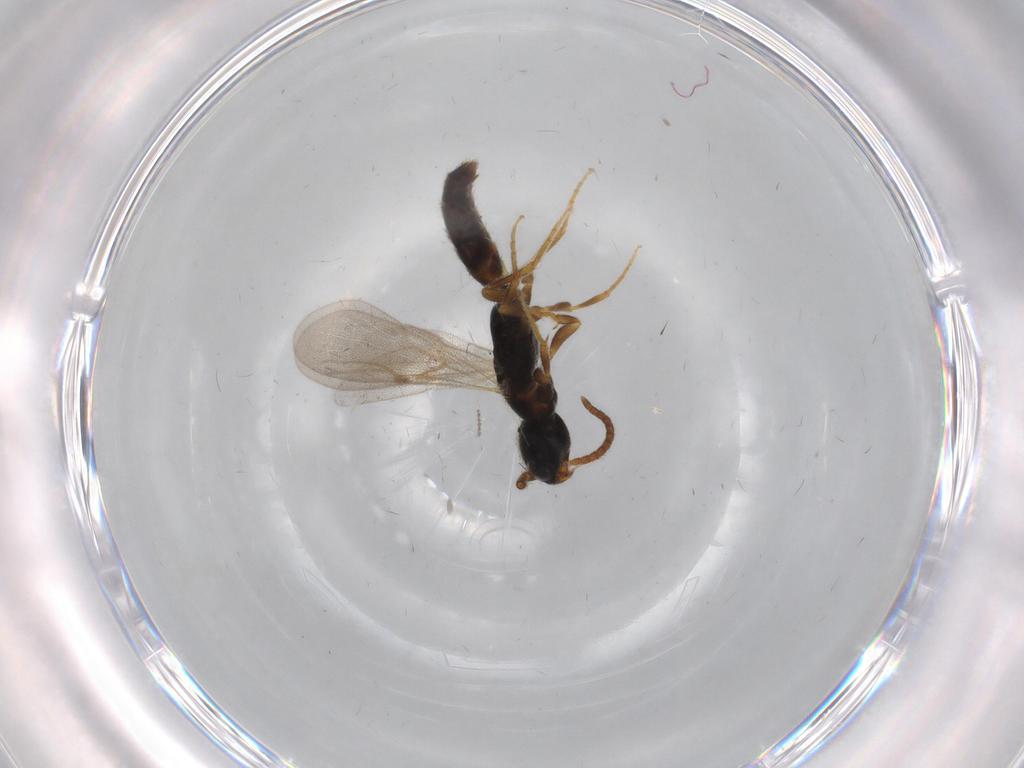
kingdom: Animalia
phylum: Arthropoda
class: Insecta
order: Hymenoptera
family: Bethylidae
